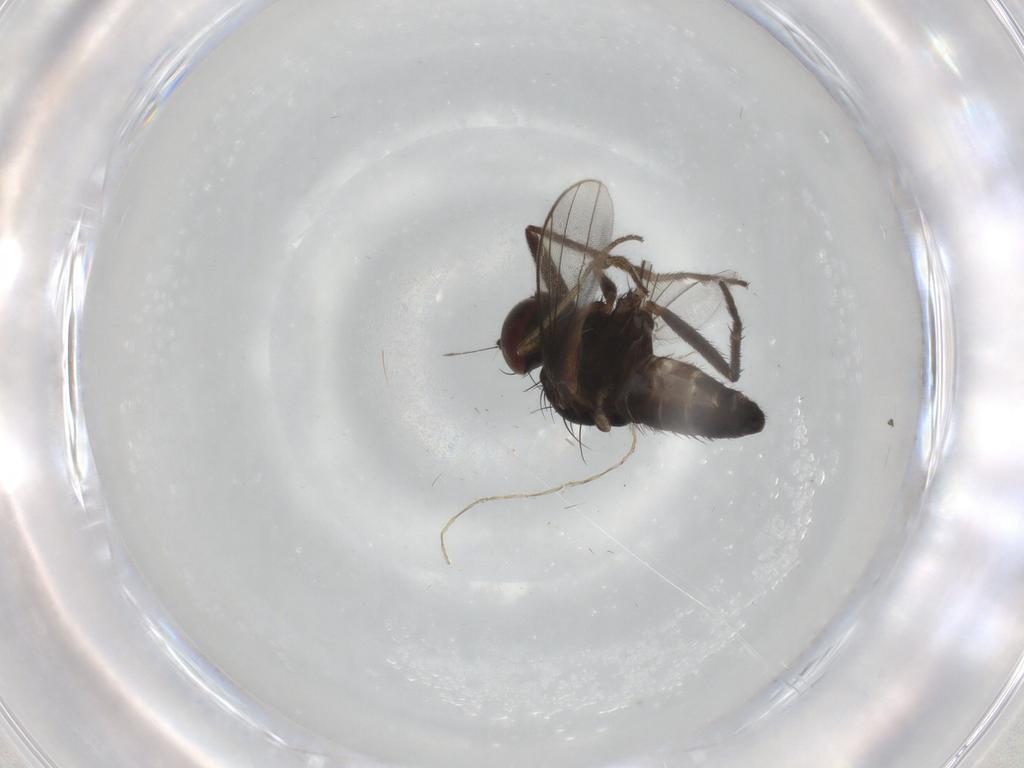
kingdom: Animalia
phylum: Arthropoda
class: Insecta
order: Diptera
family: Dolichopodidae
